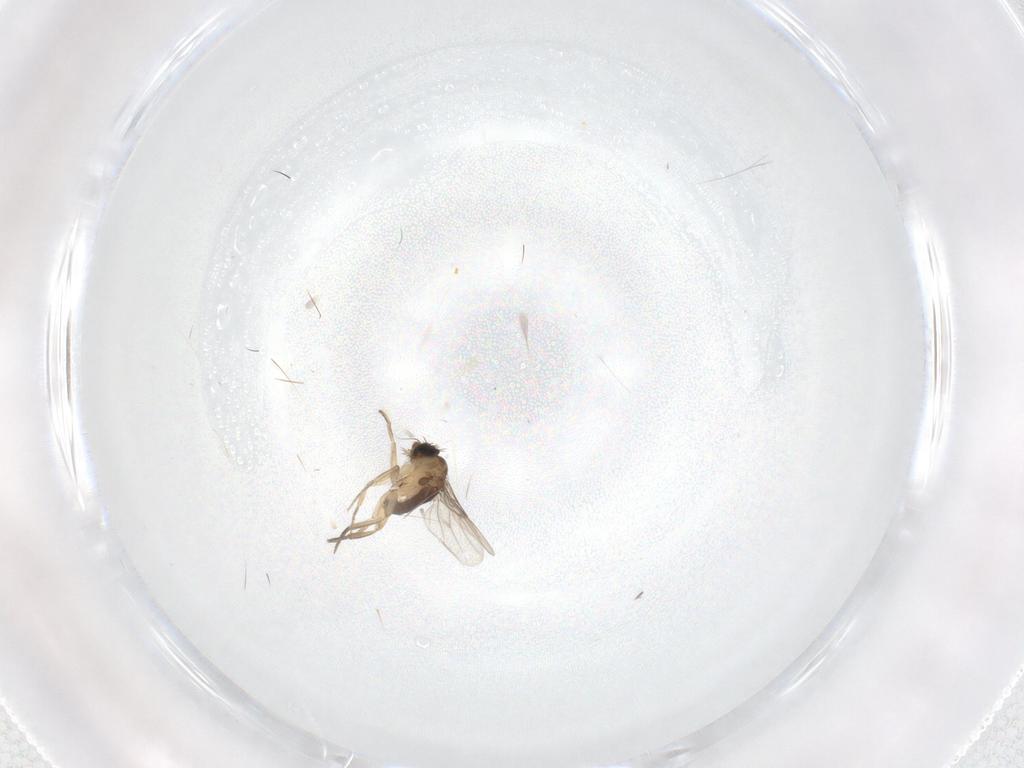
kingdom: Animalia
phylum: Arthropoda
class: Insecta
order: Diptera
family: Phoridae
